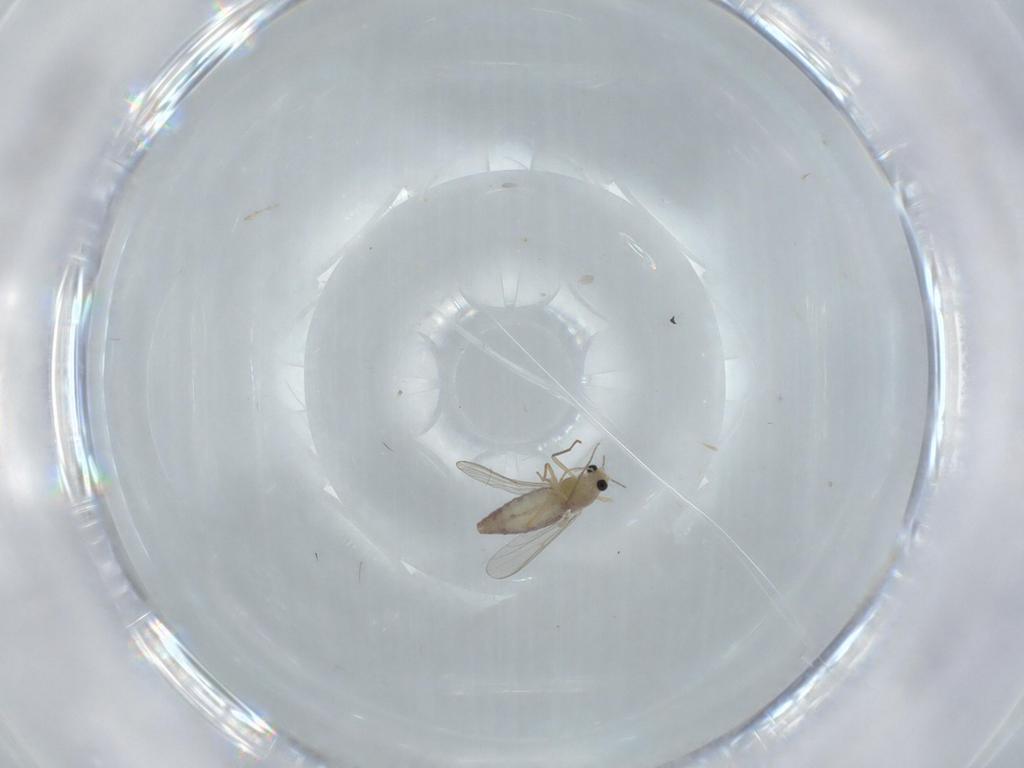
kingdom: Animalia
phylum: Arthropoda
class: Insecta
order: Diptera
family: Chironomidae
